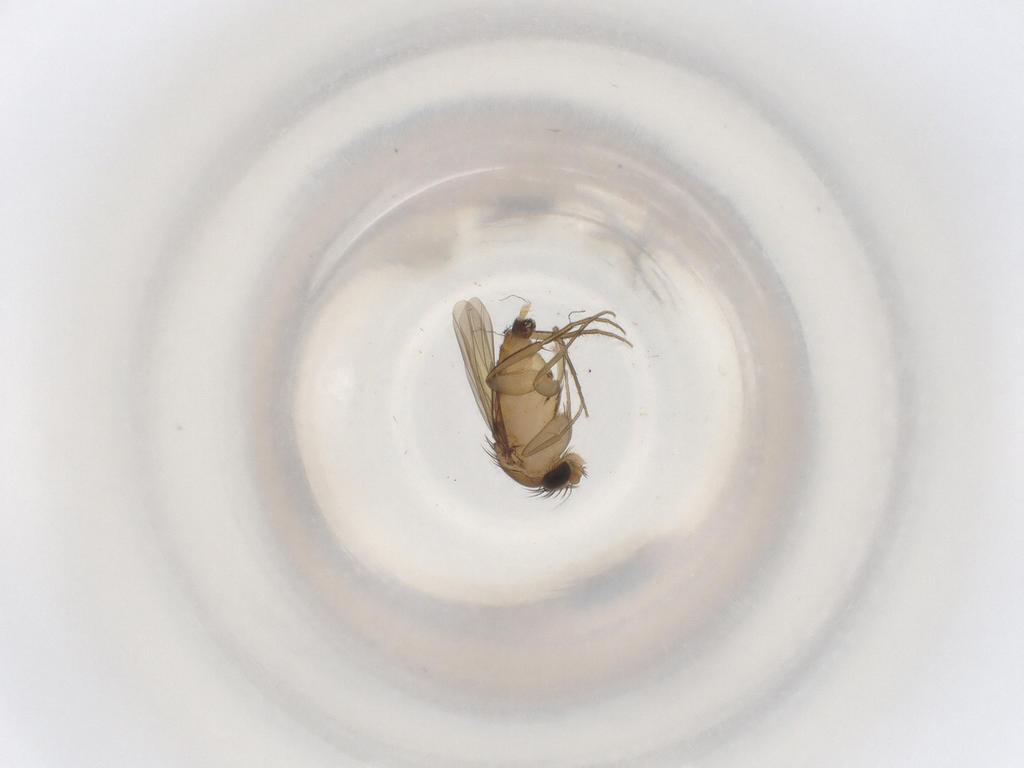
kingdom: Animalia
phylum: Arthropoda
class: Insecta
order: Diptera
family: Phoridae
